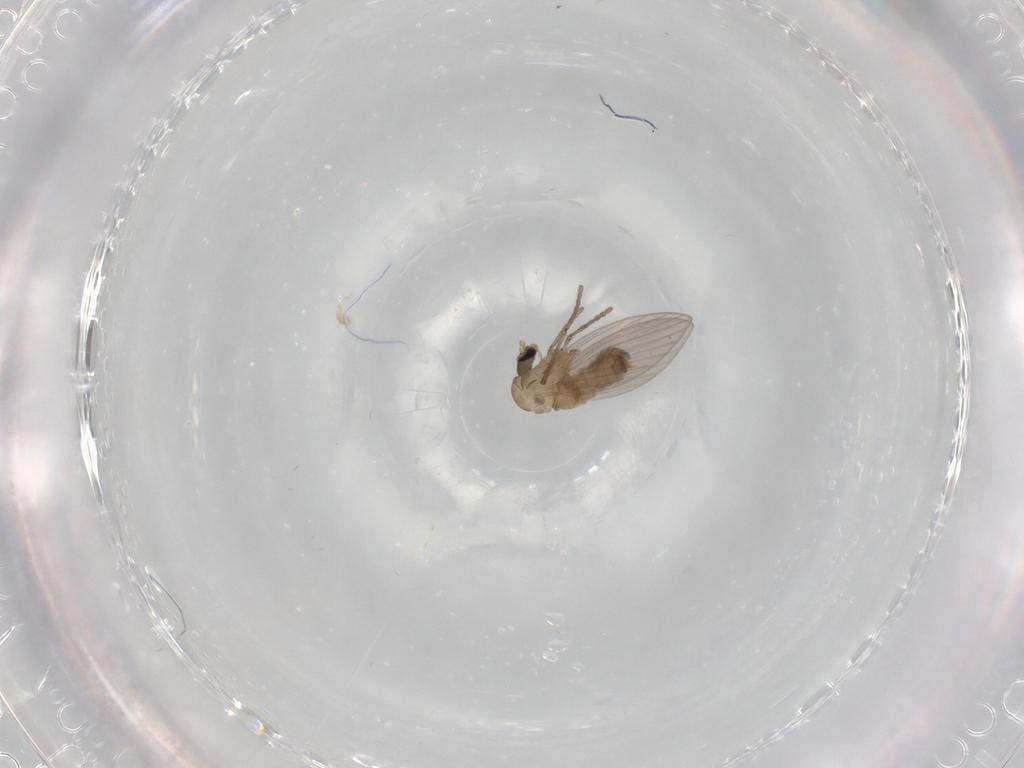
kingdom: Animalia
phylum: Arthropoda
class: Insecta
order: Diptera
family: Psychodidae
